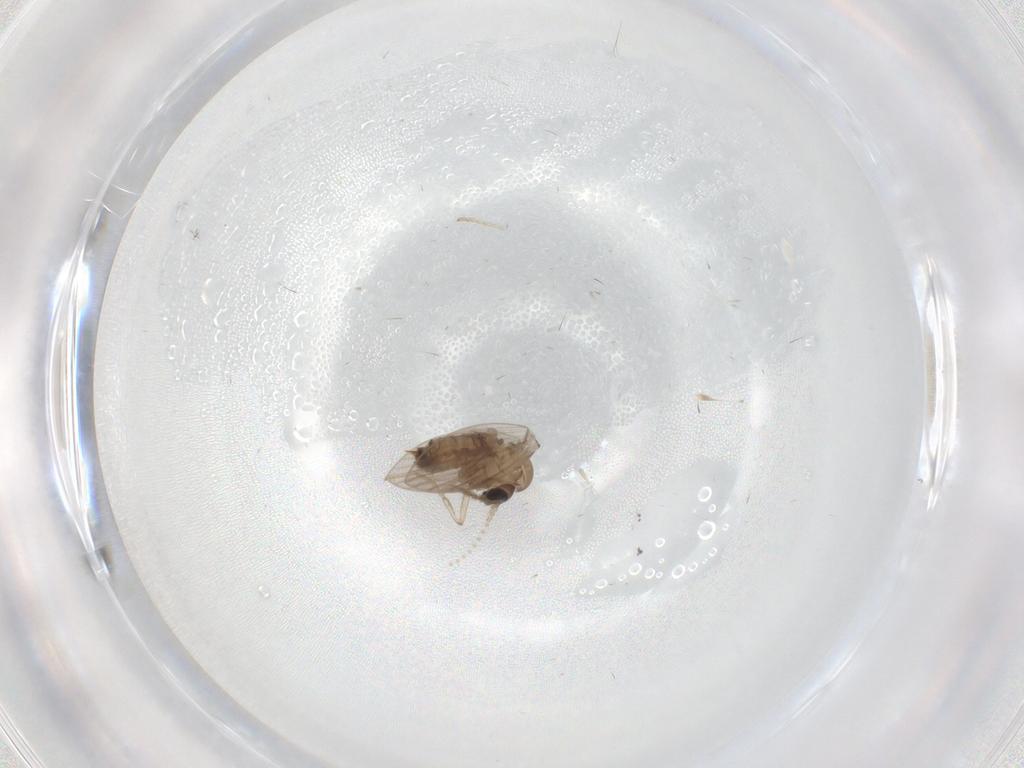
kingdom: Animalia
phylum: Arthropoda
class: Insecta
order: Diptera
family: Psychodidae
